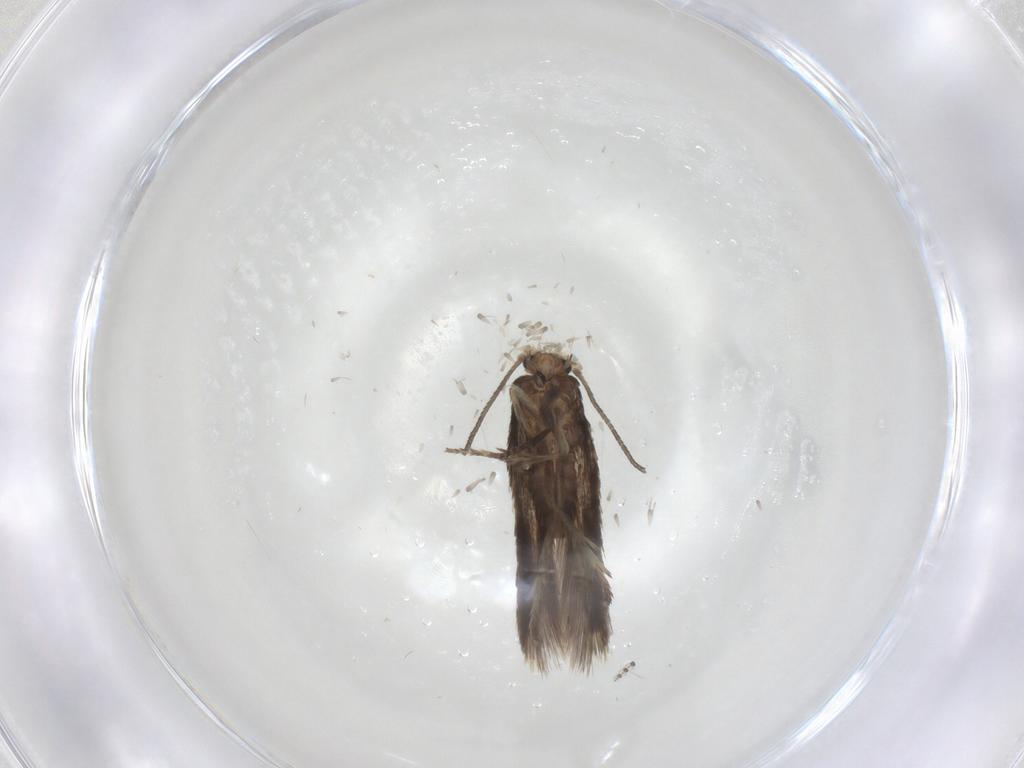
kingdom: Animalia
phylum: Arthropoda
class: Insecta
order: Lepidoptera
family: Nepticulidae
